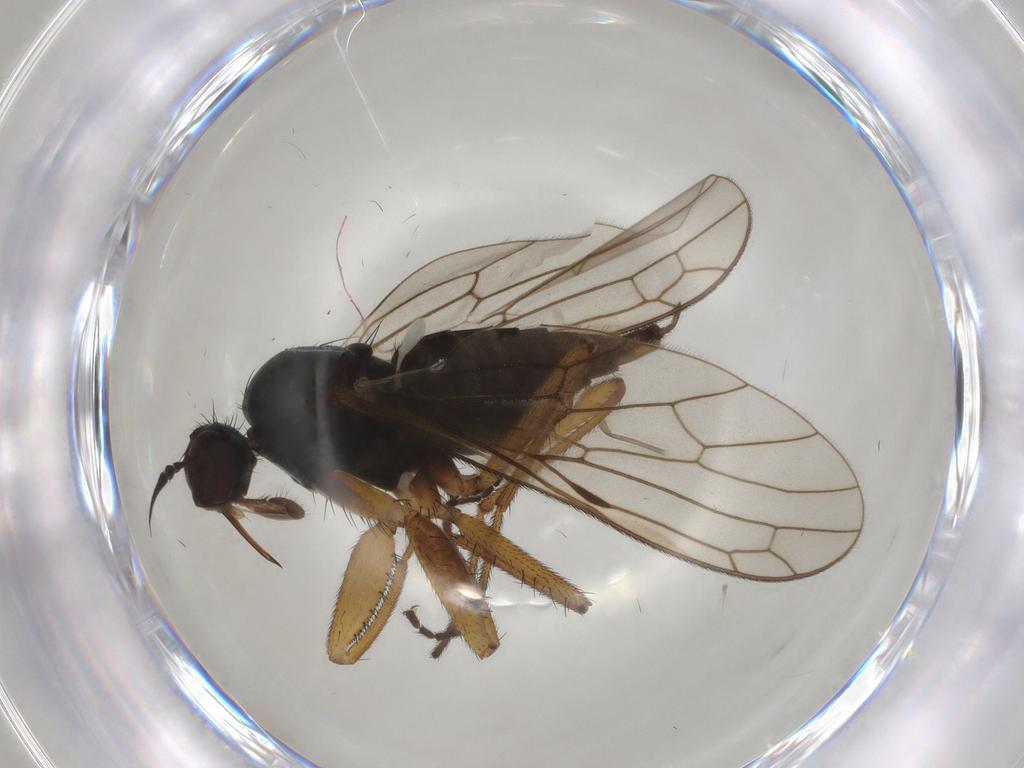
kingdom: Animalia
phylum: Arthropoda
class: Insecta
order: Diptera
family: Empididae
